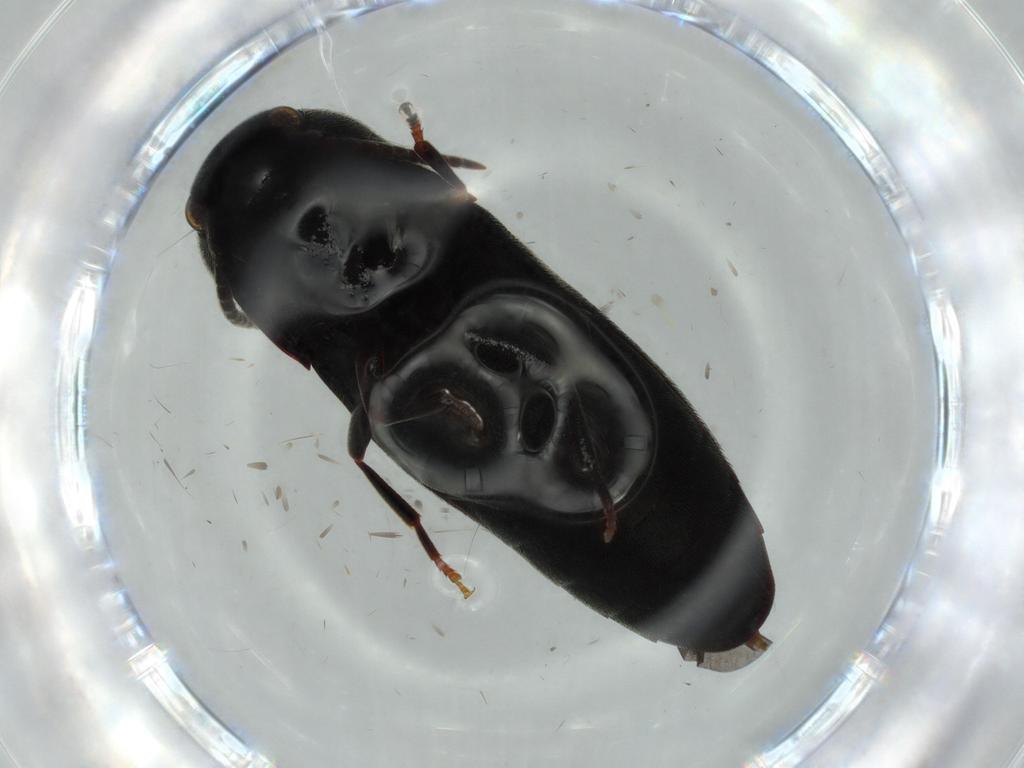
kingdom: Animalia
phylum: Arthropoda
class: Insecta
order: Coleoptera
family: Eucnemidae
